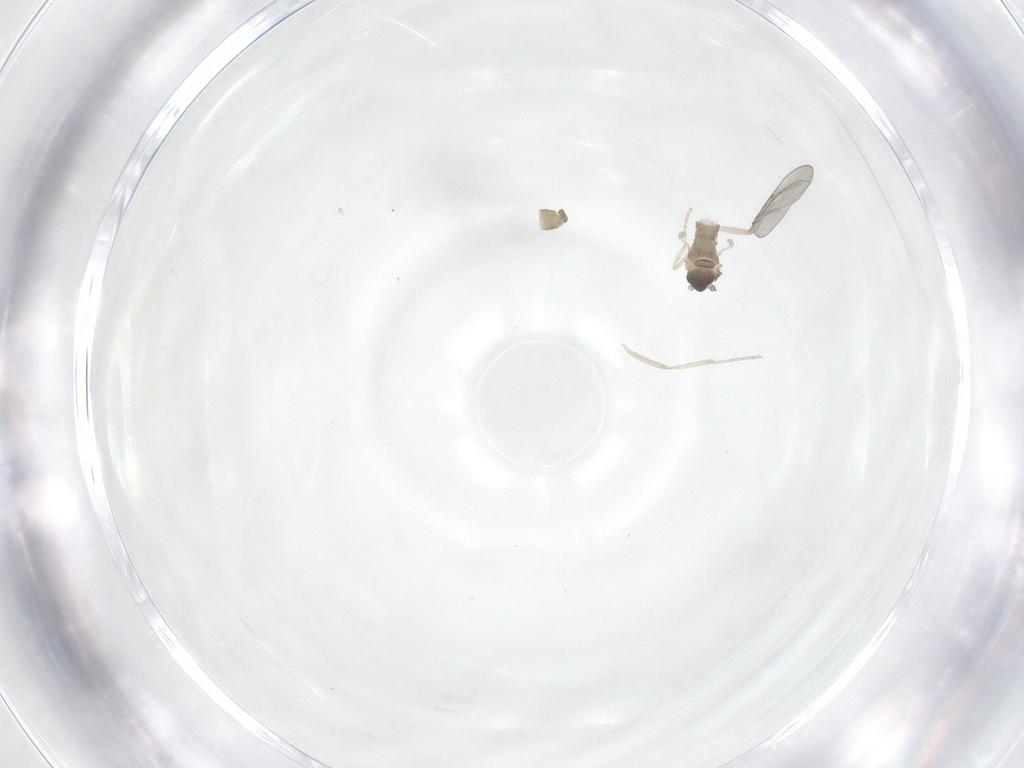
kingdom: Animalia
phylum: Arthropoda
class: Insecta
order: Diptera
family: Cecidomyiidae
